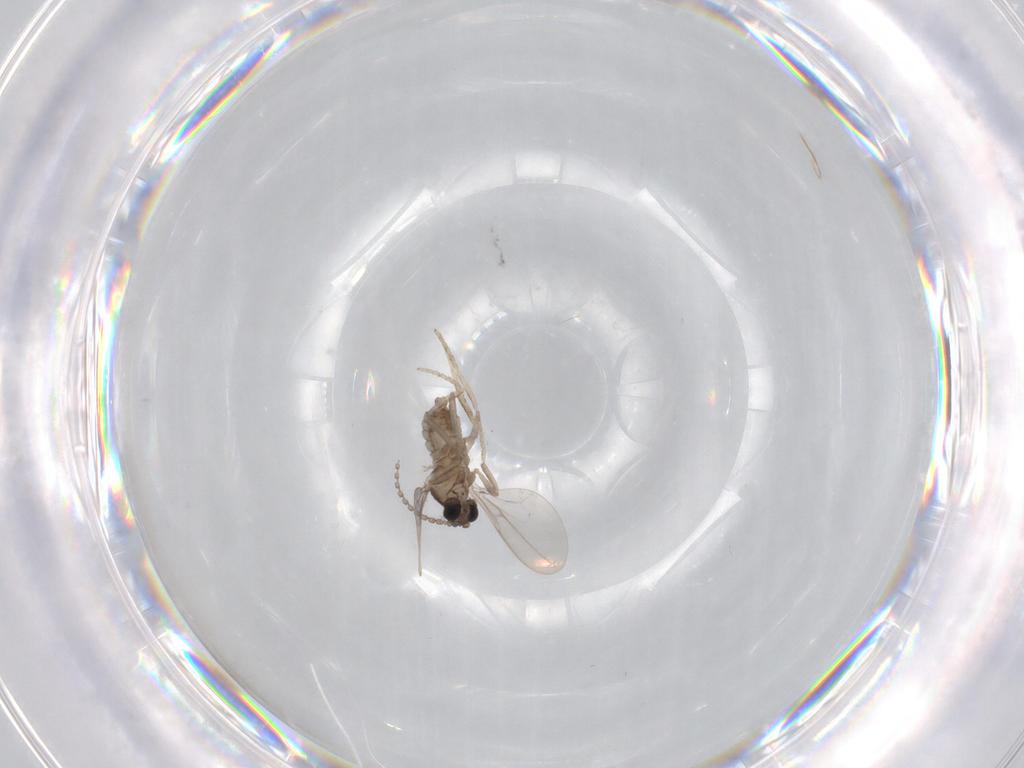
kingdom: Animalia
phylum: Arthropoda
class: Insecta
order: Diptera
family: Cecidomyiidae
